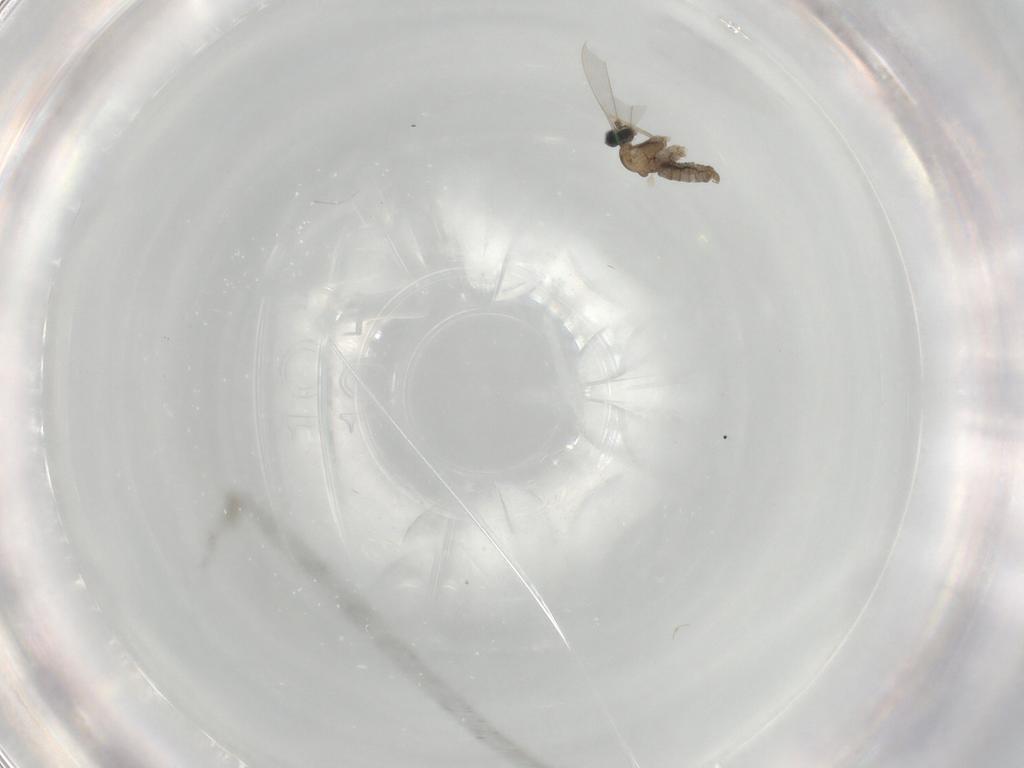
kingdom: Animalia
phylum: Arthropoda
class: Insecta
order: Diptera
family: Cecidomyiidae
